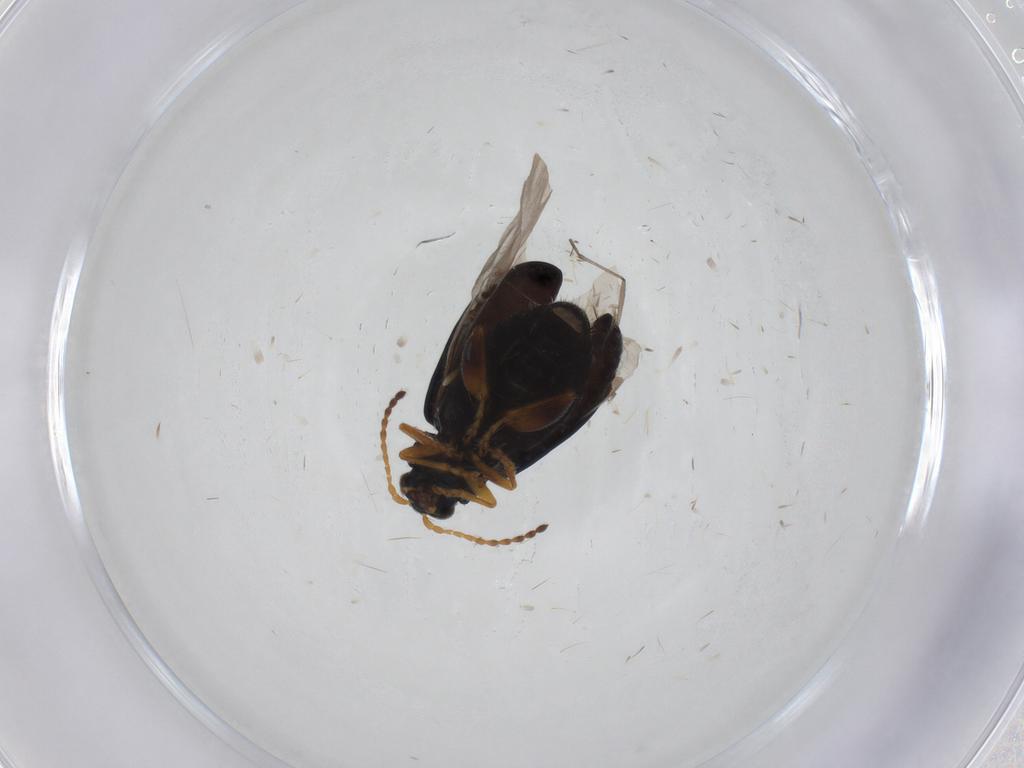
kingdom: Animalia
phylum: Arthropoda
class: Insecta
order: Coleoptera
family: Chrysomelidae
